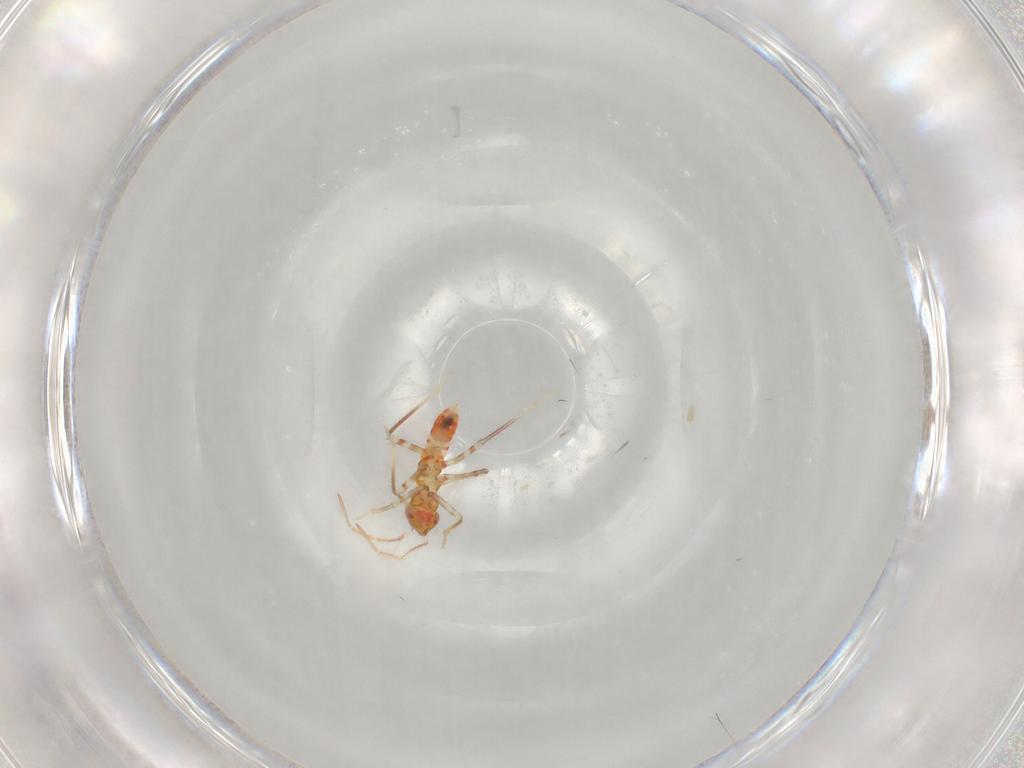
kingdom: Animalia
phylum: Arthropoda
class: Insecta
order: Hemiptera
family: Miridae
